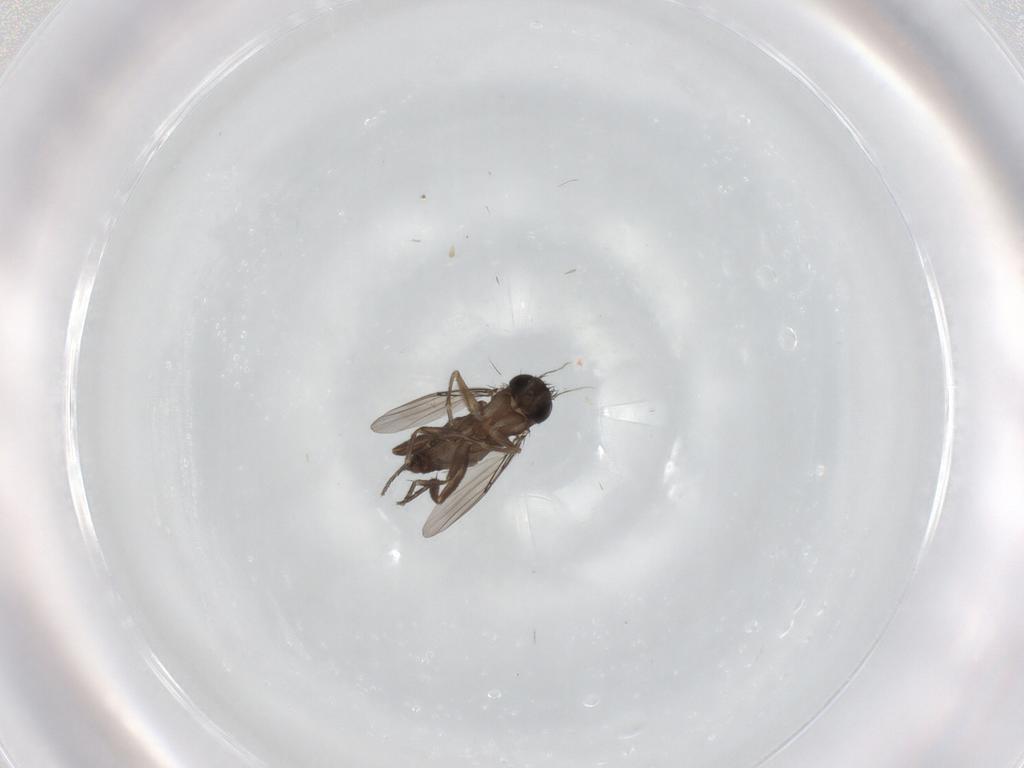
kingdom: Animalia
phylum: Arthropoda
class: Insecta
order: Diptera
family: Phoridae
